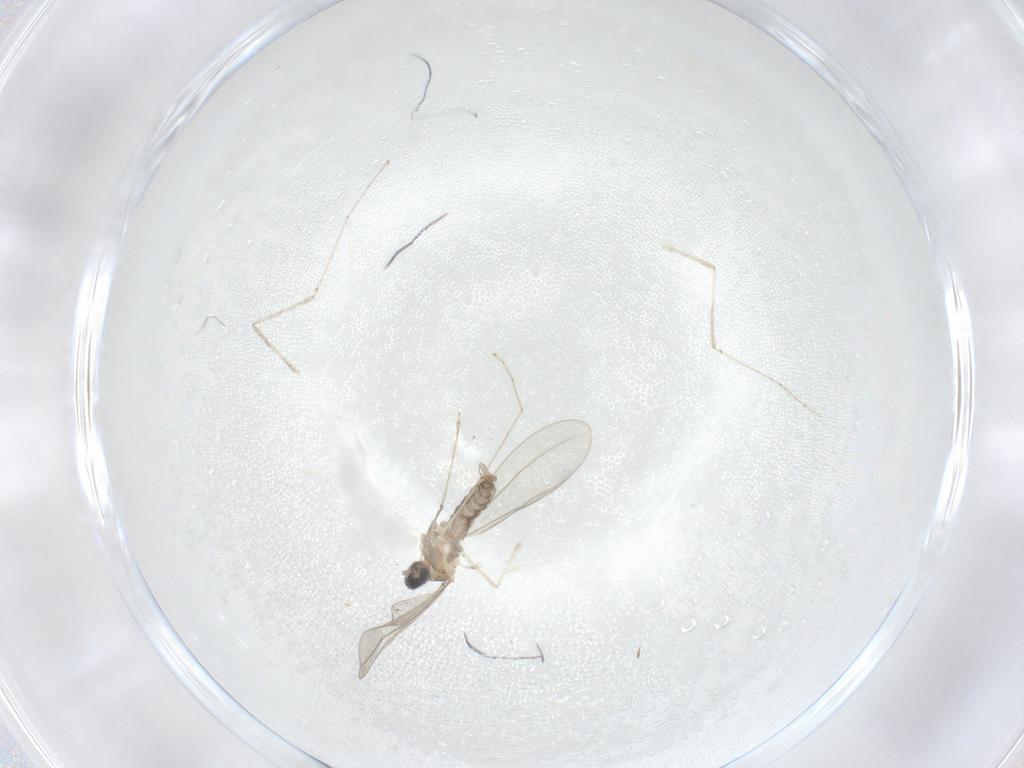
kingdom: Animalia
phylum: Arthropoda
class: Insecta
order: Diptera
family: Cecidomyiidae
